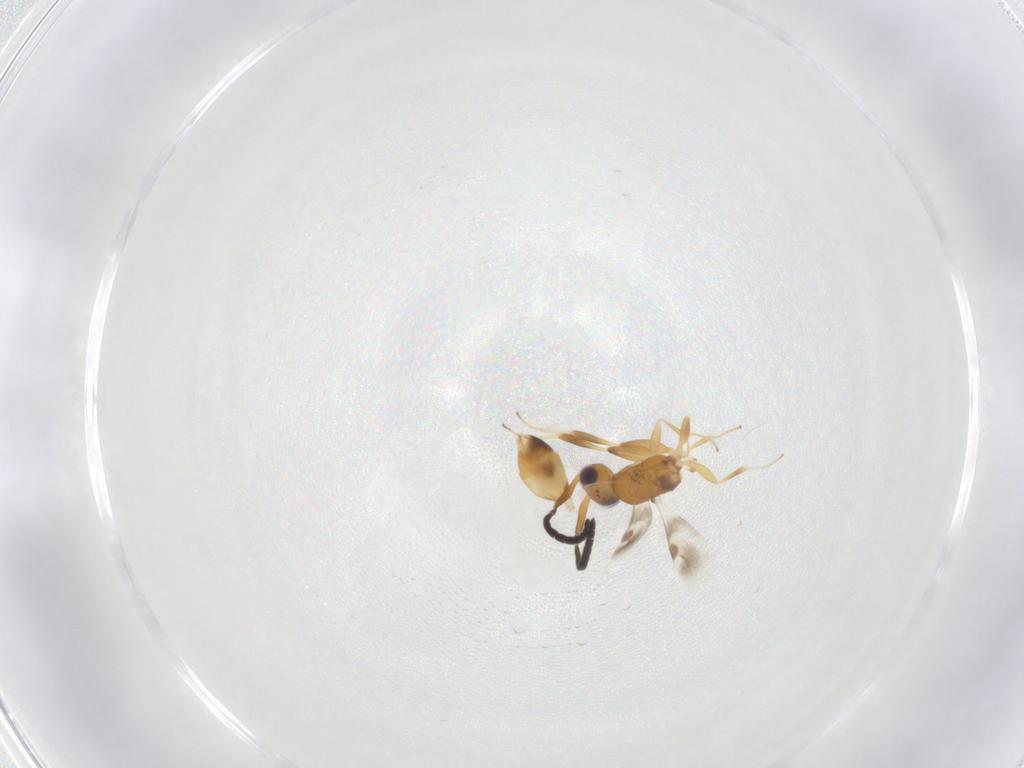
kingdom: Animalia
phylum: Arthropoda
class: Insecta
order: Hymenoptera
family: Megaspilidae
